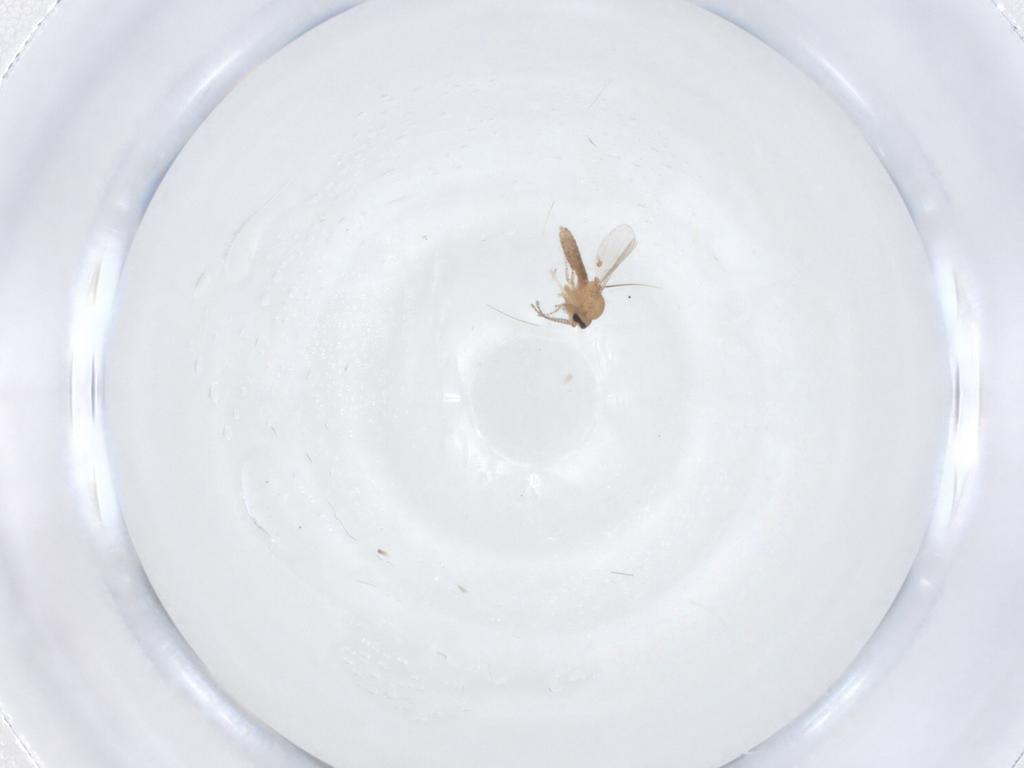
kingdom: Animalia
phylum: Arthropoda
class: Insecta
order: Diptera
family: Ceratopogonidae
